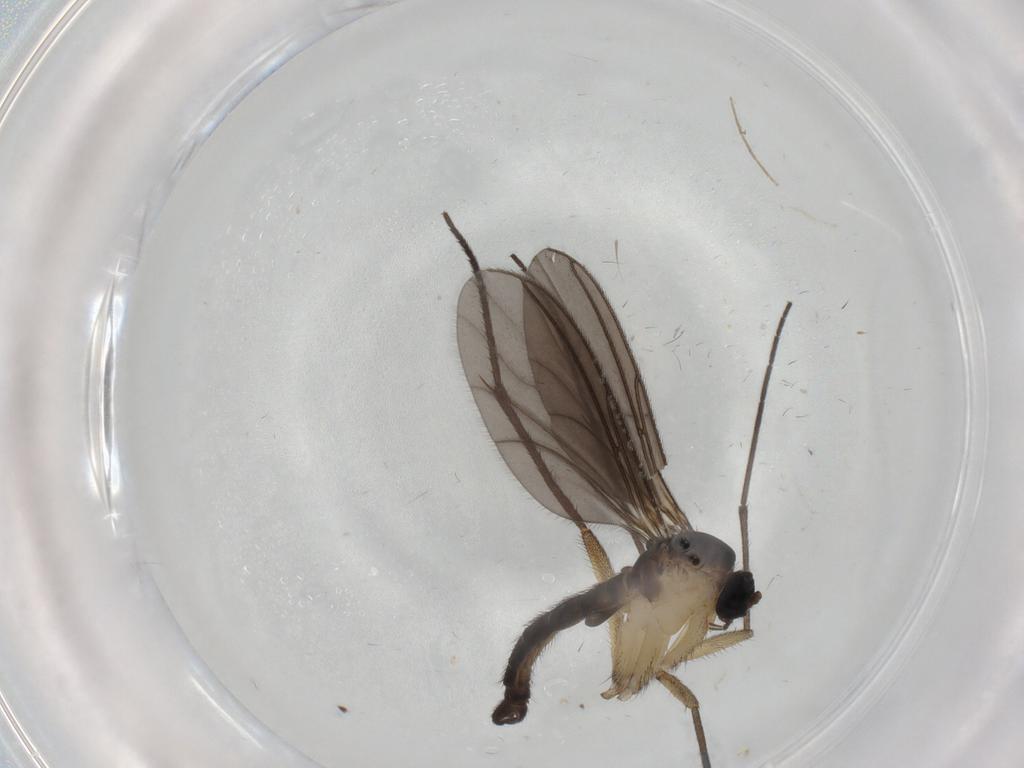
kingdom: Animalia
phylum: Arthropoda
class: Insecta
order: Diptera
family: Sciaridae
